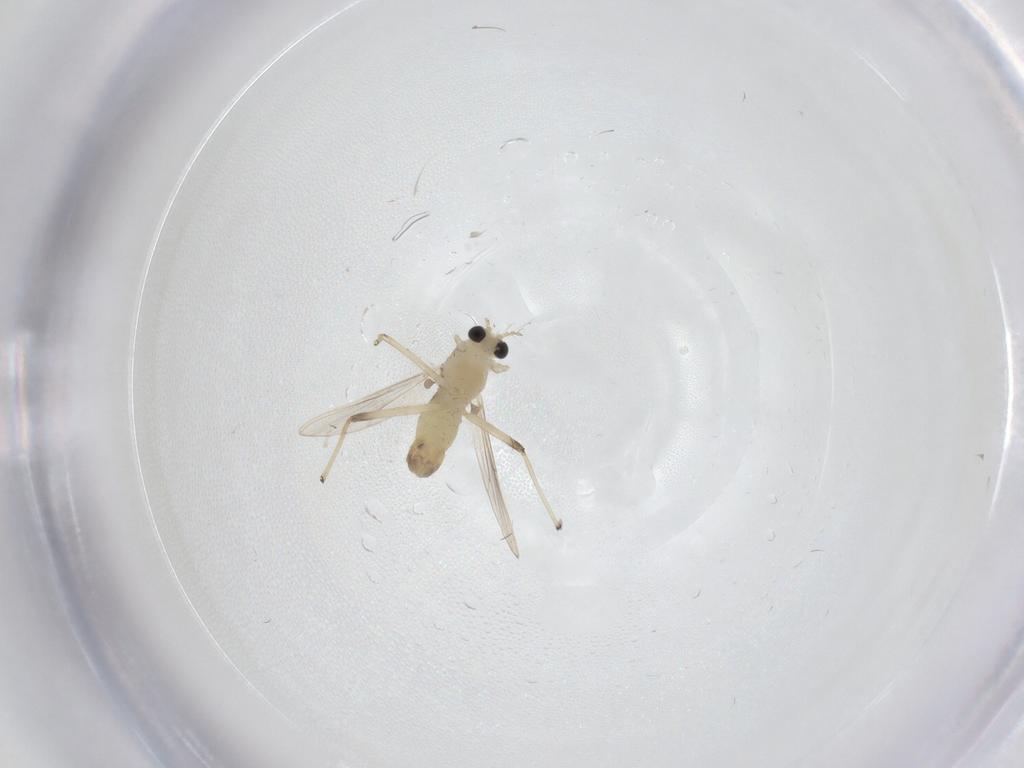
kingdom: Animalia
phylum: Arthropoda
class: Insecta
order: Diptera
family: Chironomidae
